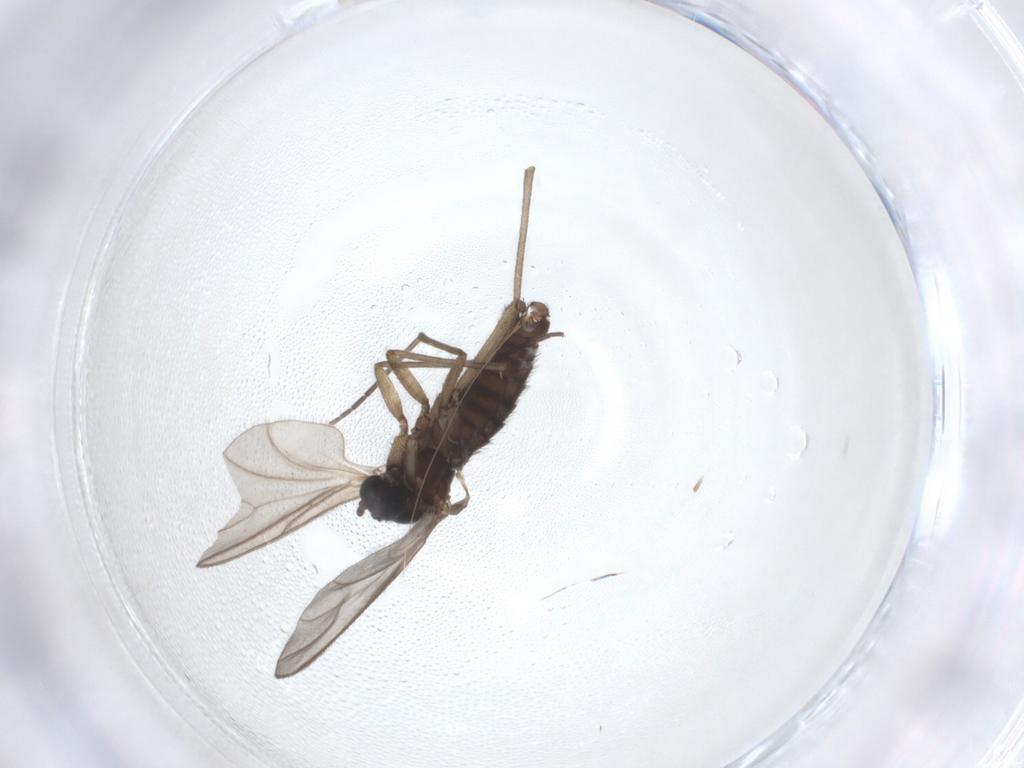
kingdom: Animalia
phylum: Arthropoda
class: Insecta
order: Diptera
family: Sciaridae
